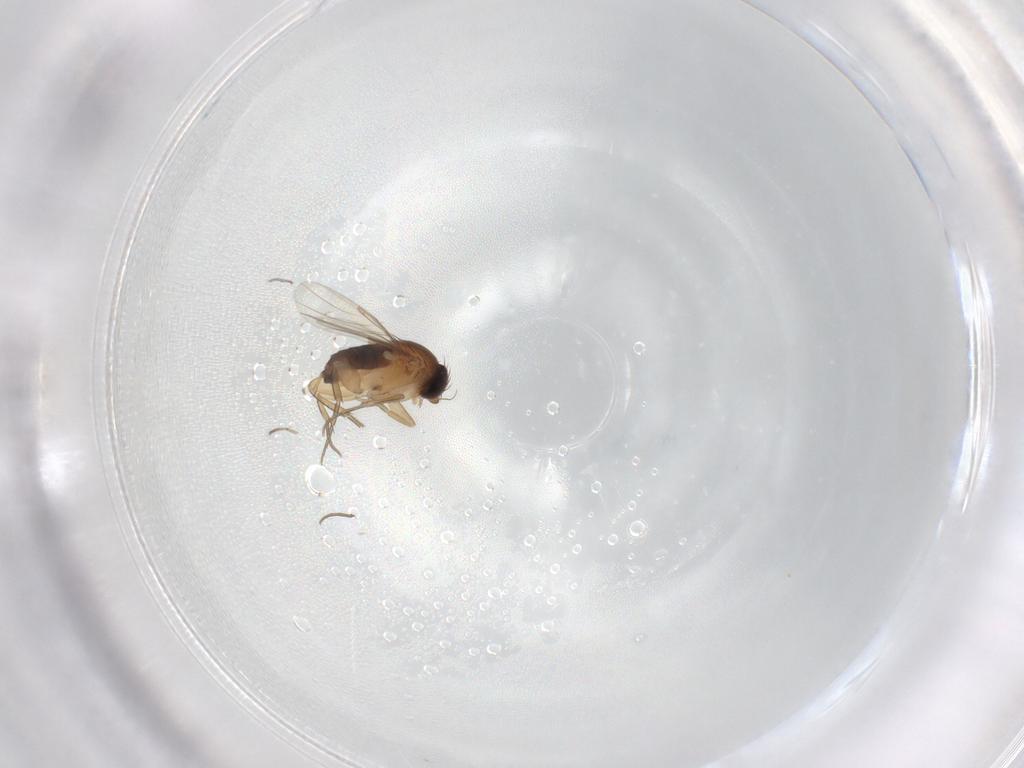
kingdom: Animalia
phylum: Arthropoda
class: Insecta
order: Diptera
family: Phoridae
